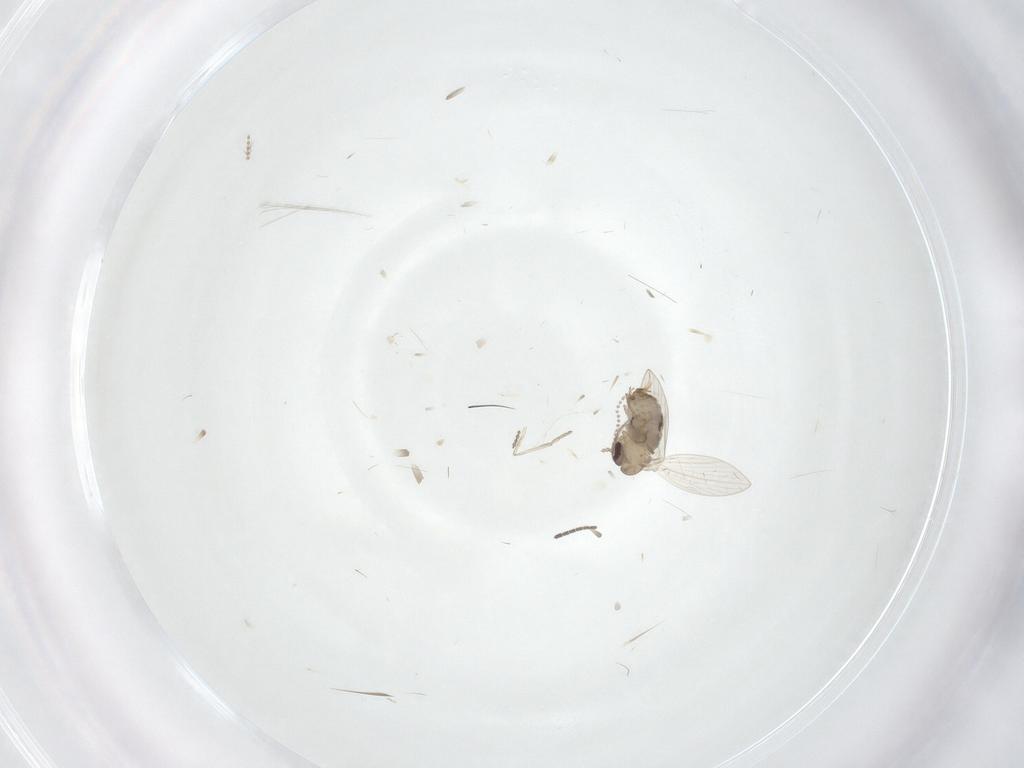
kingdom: Animalia
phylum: Arthropoda
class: Insecta
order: Diptera
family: Psychodidae
